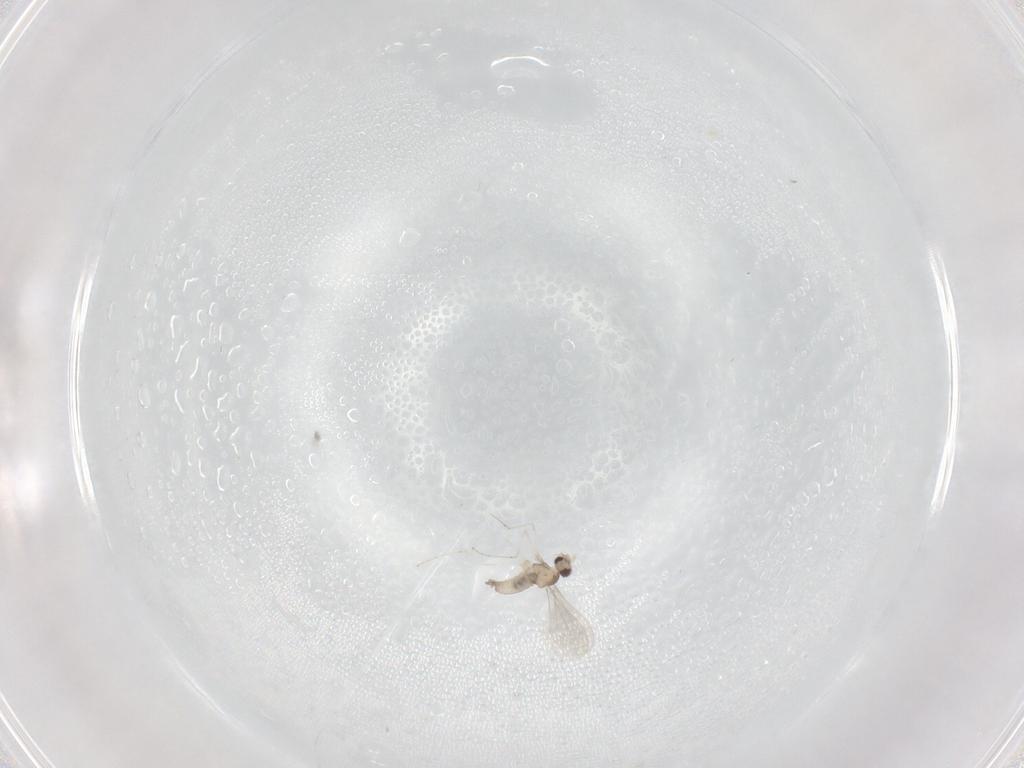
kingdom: Animalia
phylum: Arthropoda
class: Insecta
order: Diptera
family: Cecidomyiidae
